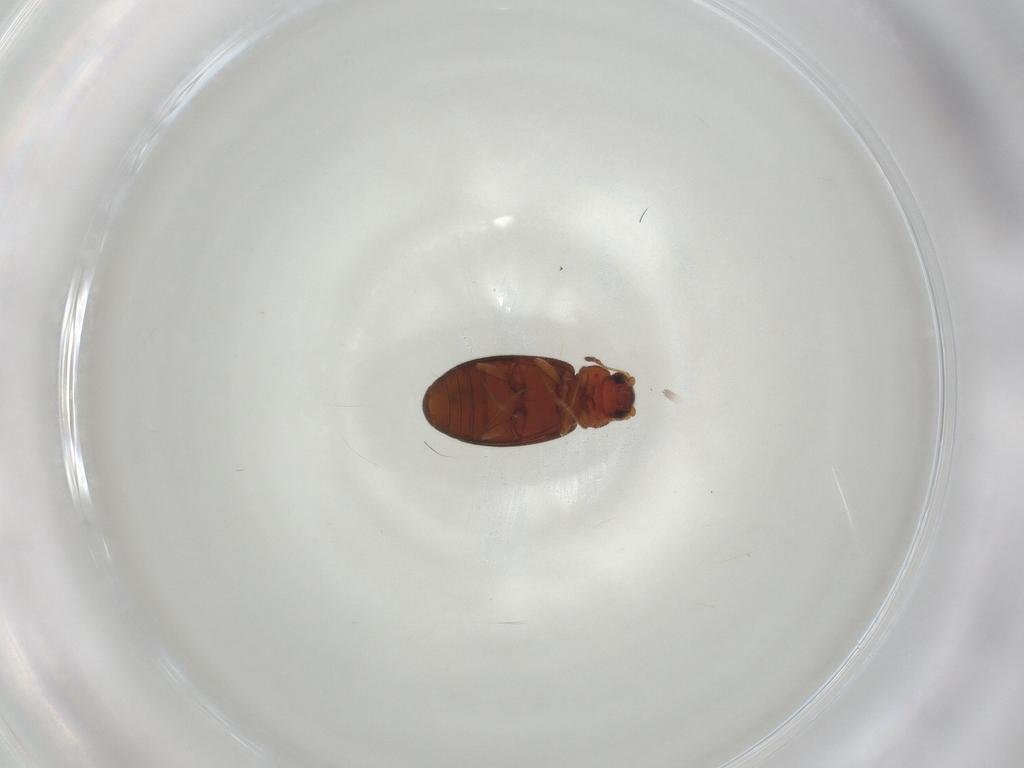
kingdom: Animalia
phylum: Arthropoda
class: Insecta
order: Coleoptera
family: Latridiidae
